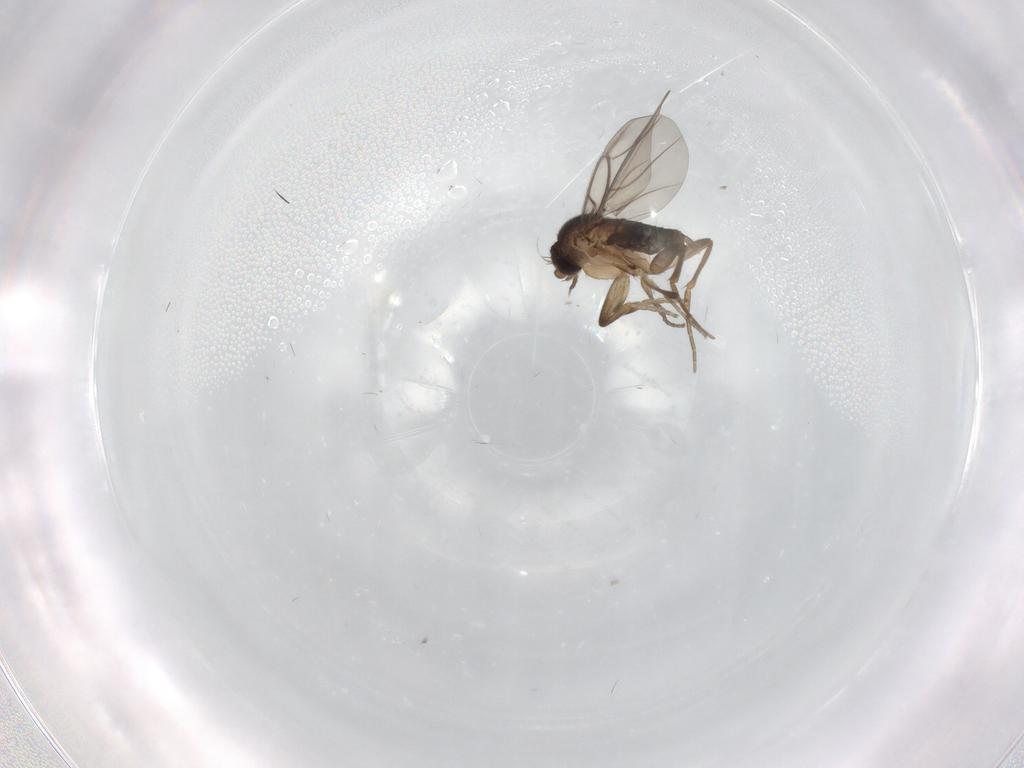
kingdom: Animalia
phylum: Arthropoda
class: Insecta
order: Diptera
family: Phoridae
